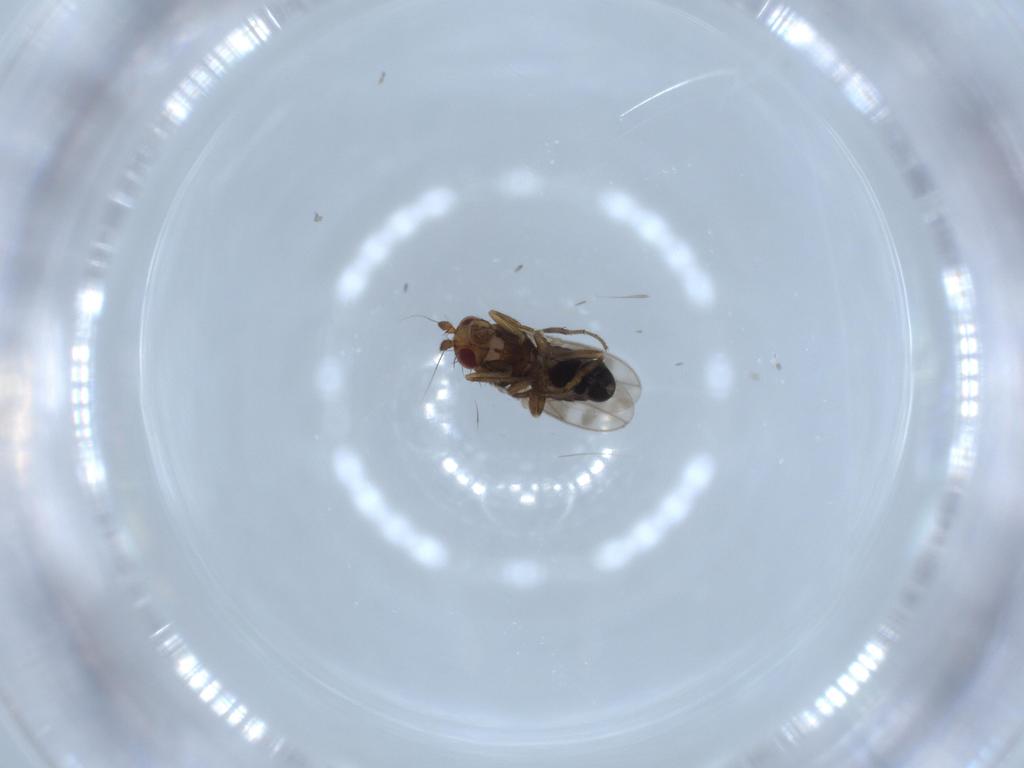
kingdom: Animalia
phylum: Arthropoda
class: Insecta
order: Diptera
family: Sphaeroceridae
